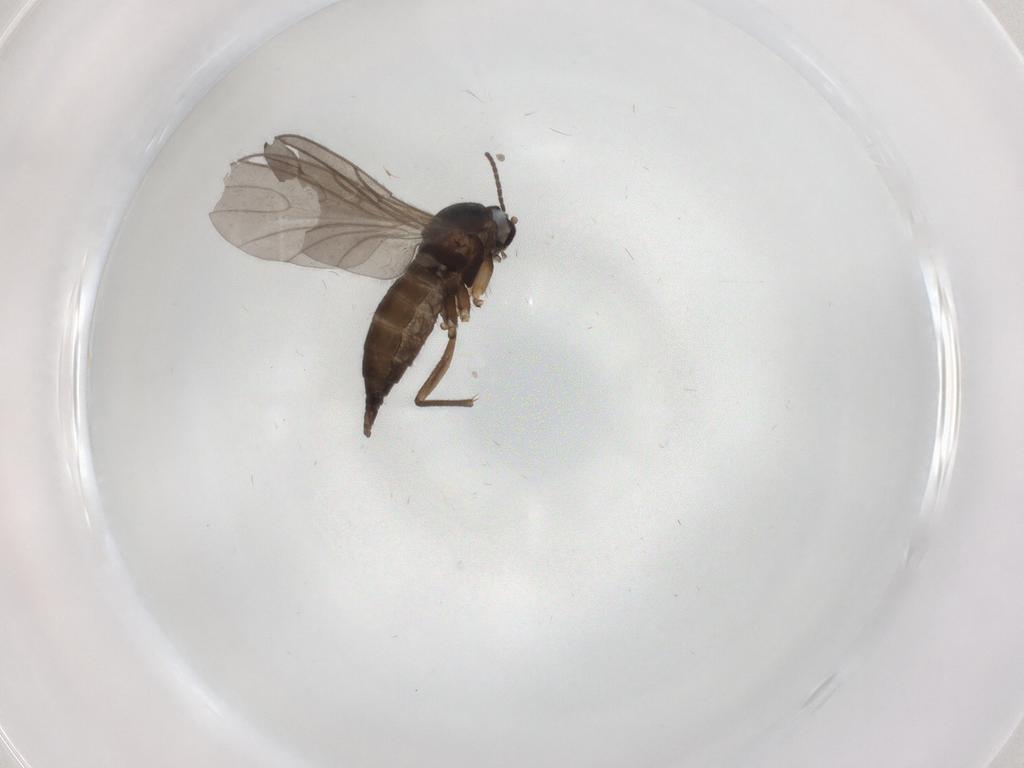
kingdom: Animalia
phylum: Arthropoda
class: Insecta
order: Diptera
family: Sciaridae
